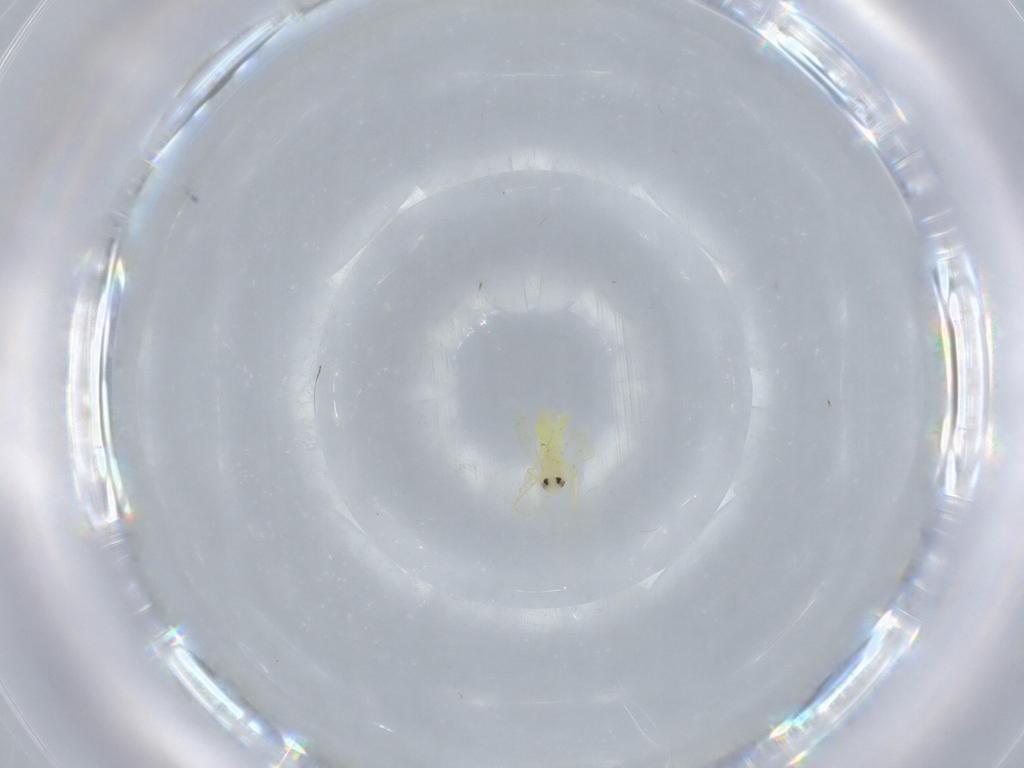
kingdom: Animalia
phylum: Arthropoda
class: Insecta
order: Hemiptera
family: Aleyrodidae
